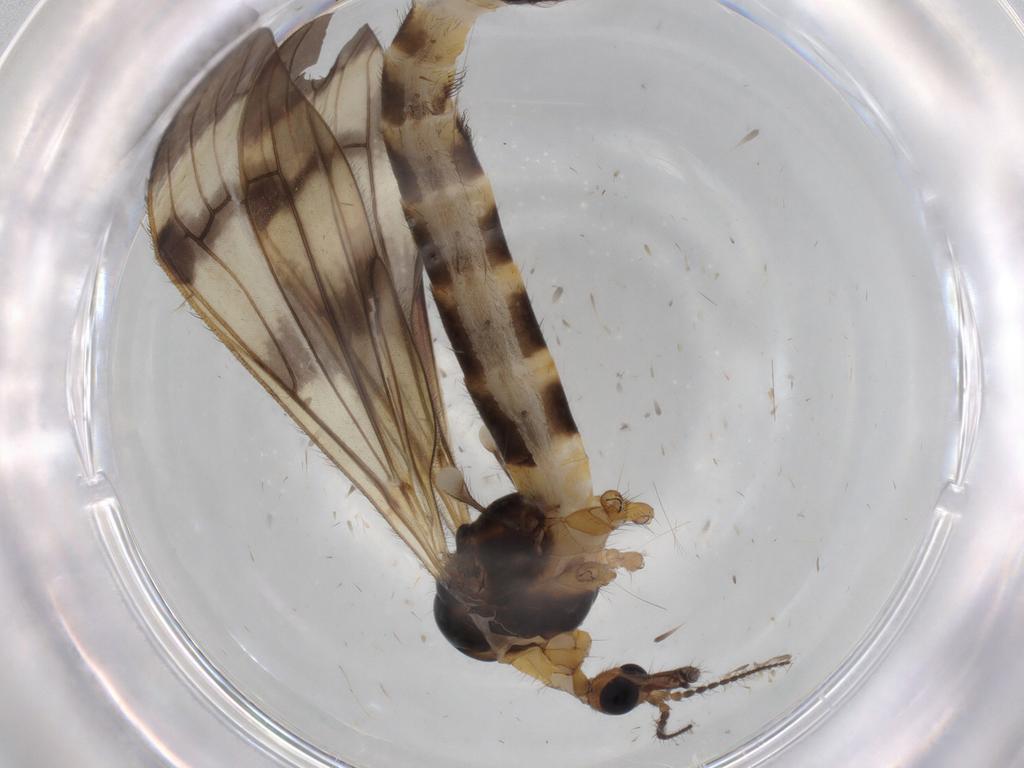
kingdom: Animalia
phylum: Arthropoda
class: Insecta
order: Diptera
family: Limoniidae
